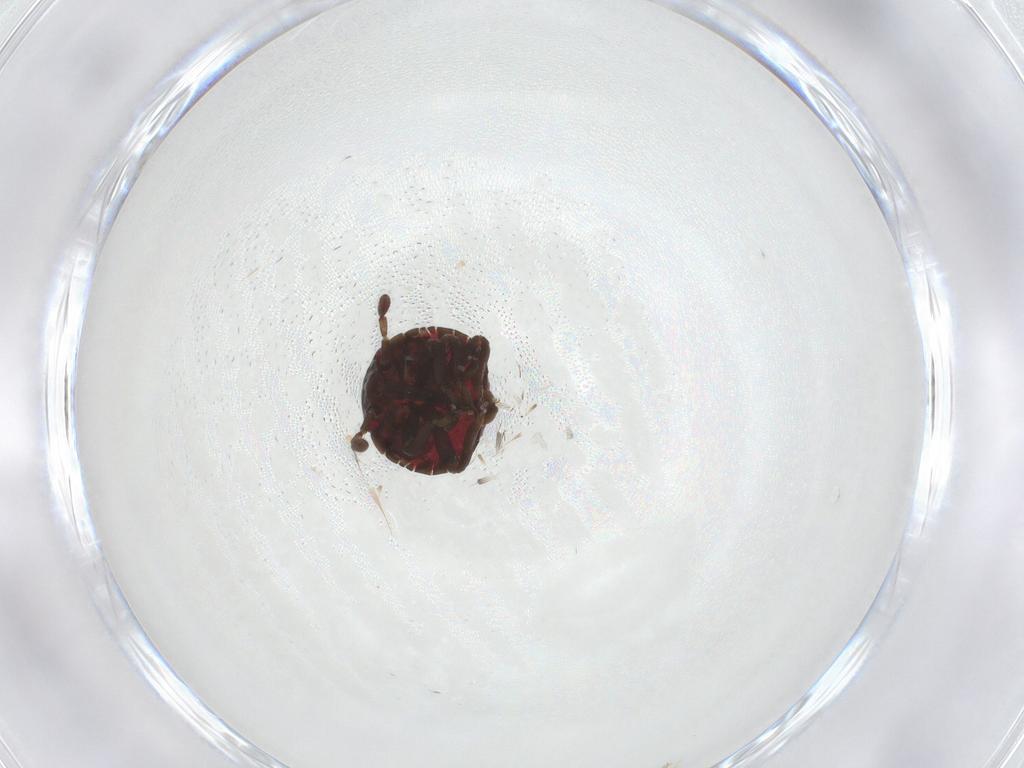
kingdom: Animalia
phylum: Arthropoda
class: Insecta
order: Hemiptera
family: Pentatomidae
